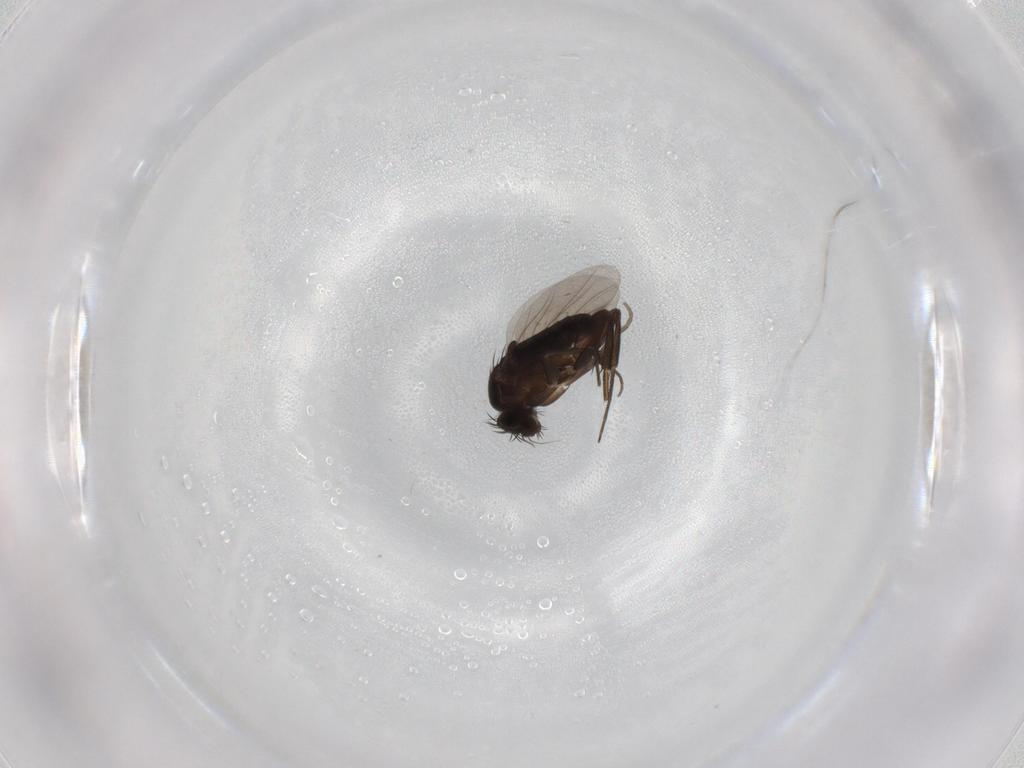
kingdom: Animalia
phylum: Arthropoda
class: Insecta
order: Diptera
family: Phoridae
